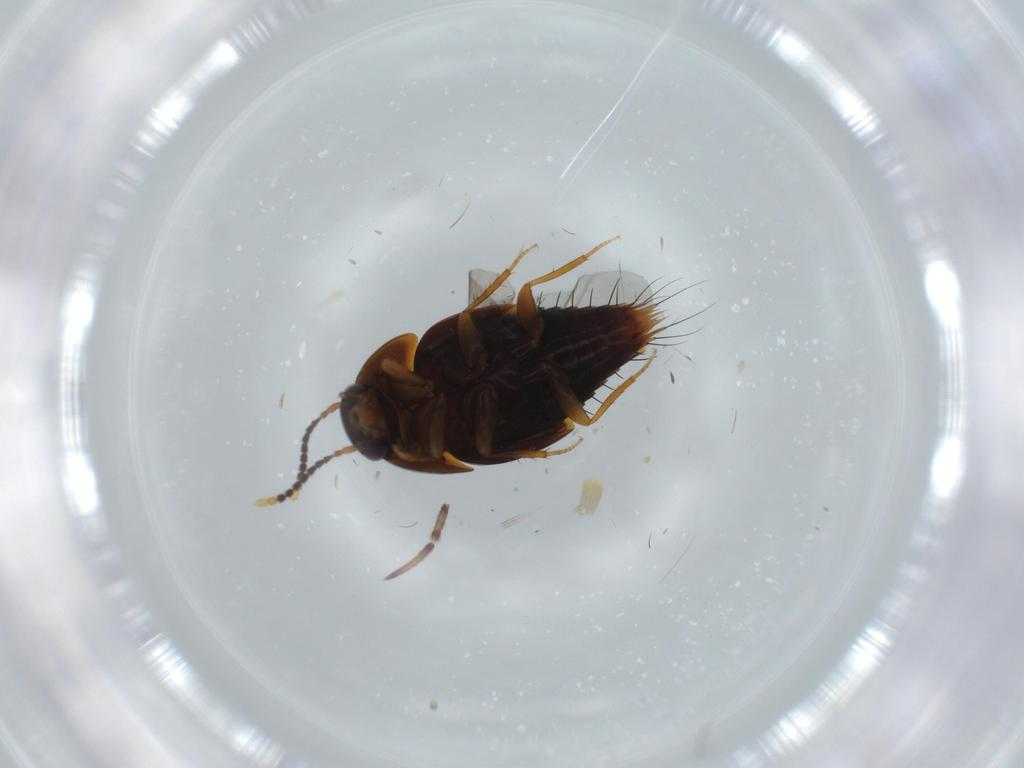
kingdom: Animalia
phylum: Arthropoda
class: Insecta
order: Coleoptera
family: Staphylinidae
